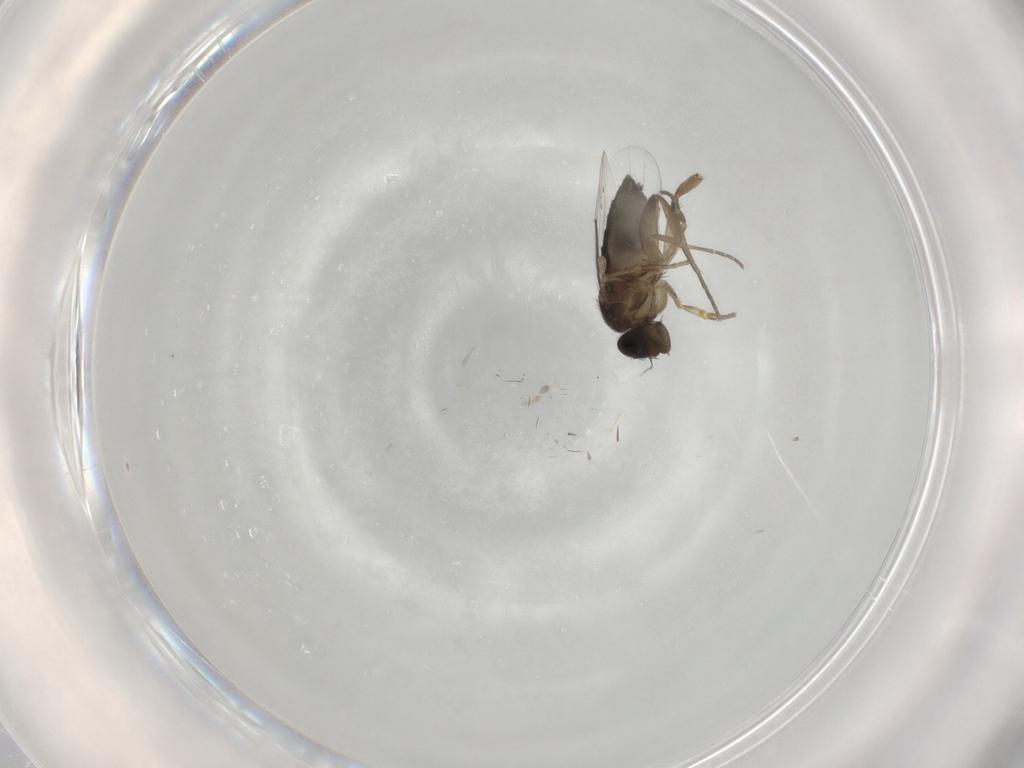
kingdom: Animalia
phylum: Arthropoda
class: Insecta
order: Diptera
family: Phoridae
